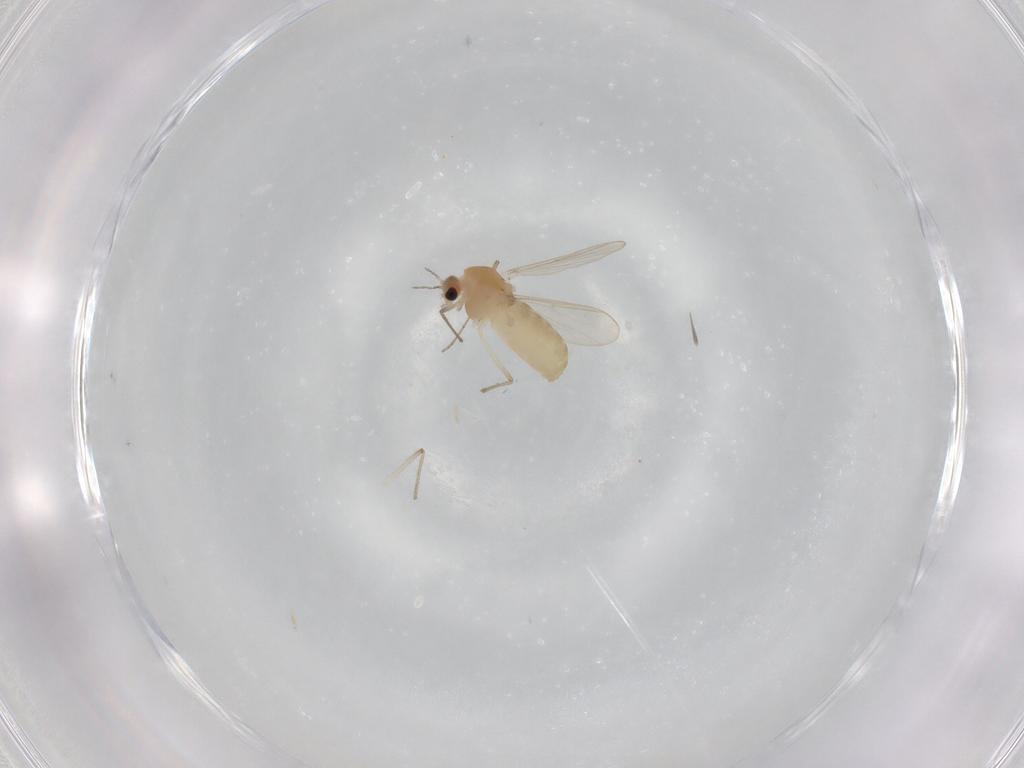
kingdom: Animalia
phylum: Arthropoda
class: Insecta
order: Diptera
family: Chironomidae
